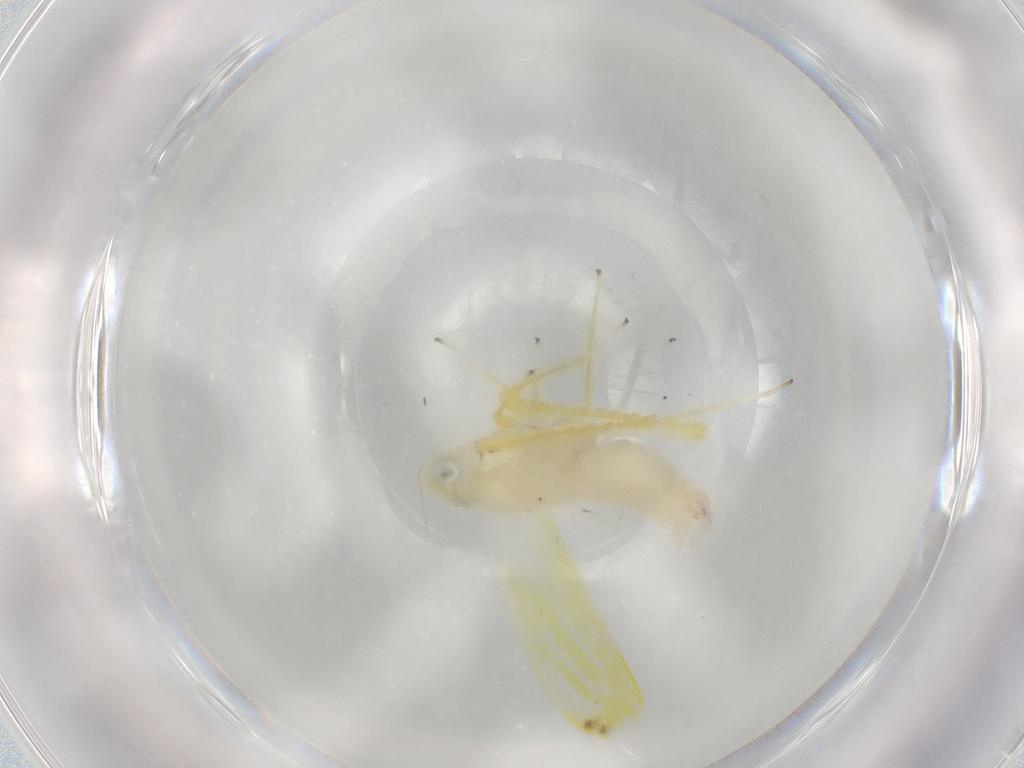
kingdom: Animalia
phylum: Arthropoda
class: Insecta
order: Hemiptera
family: Cicadellidae
